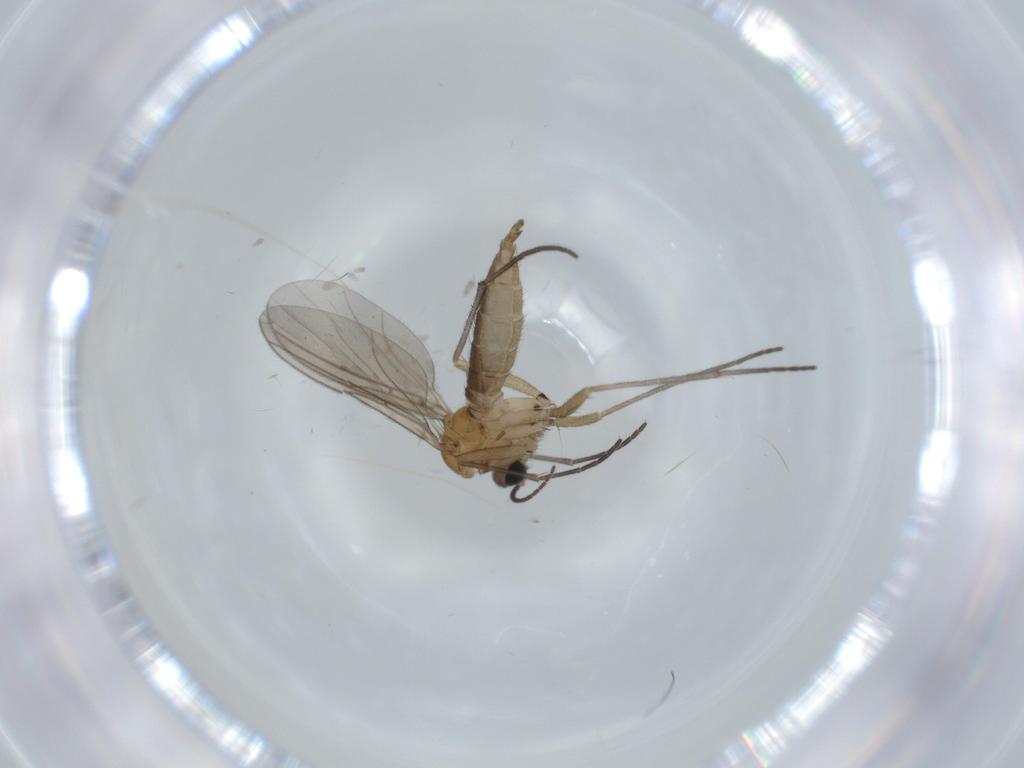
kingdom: Animalia
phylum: Arthropoda
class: Insecta
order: Diptera
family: Sciaridae
